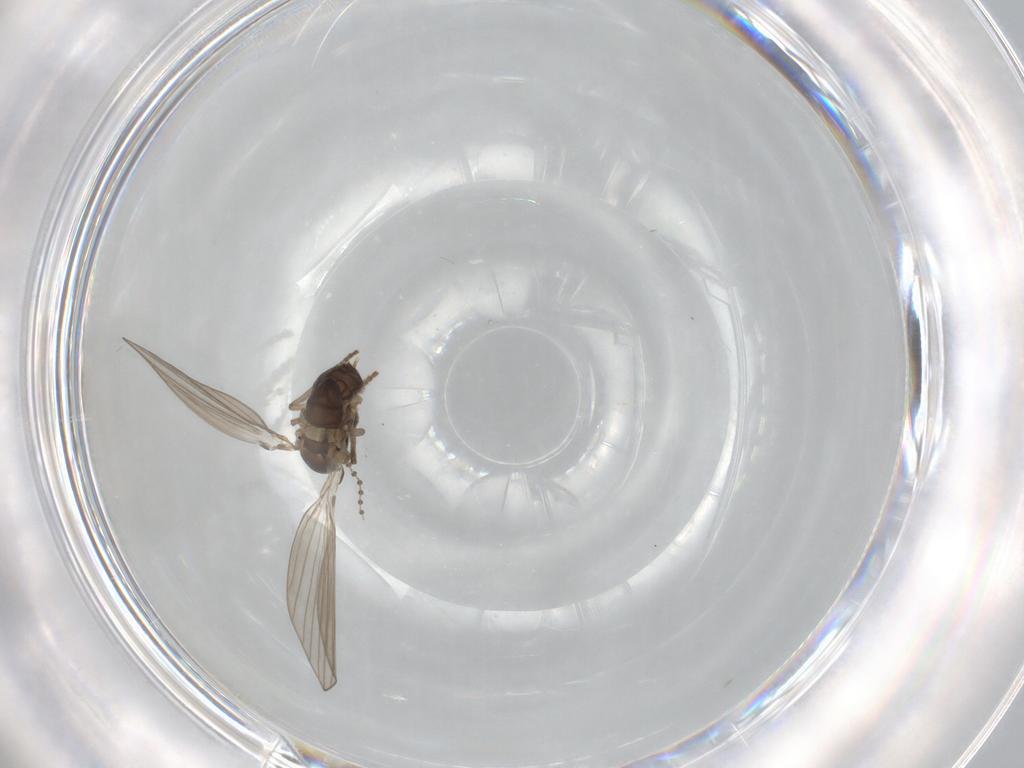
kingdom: Animalia
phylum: Arthropoda
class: Insecta
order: Diptera
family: Psychodidae
